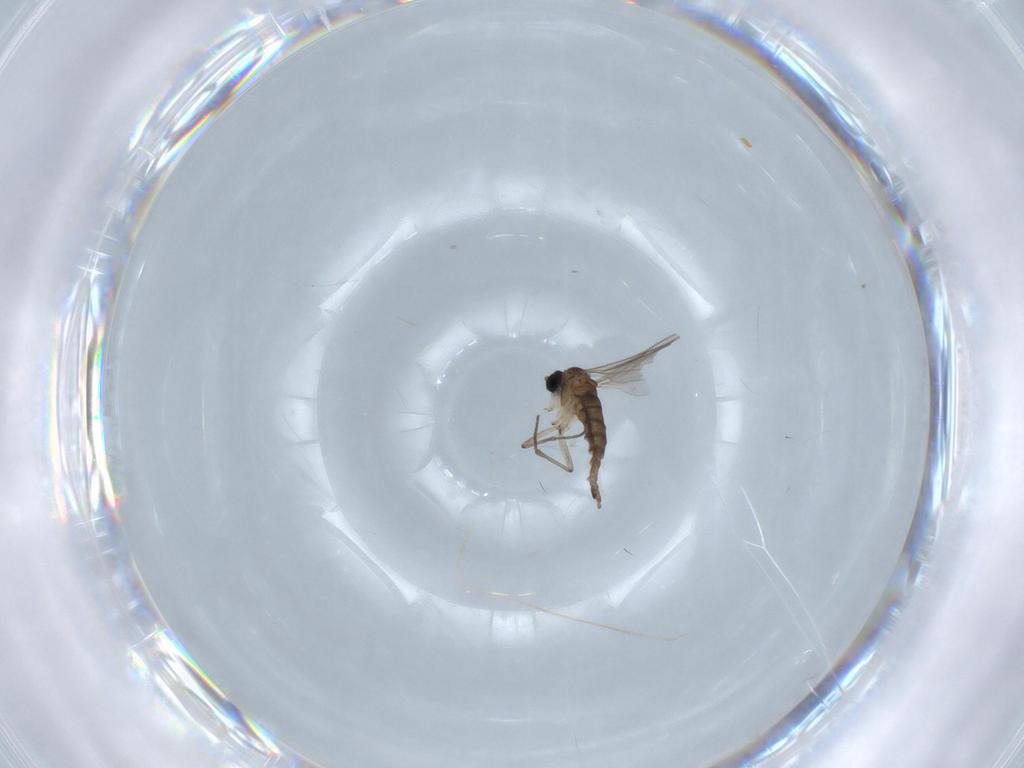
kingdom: Animalia
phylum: Arthropoda
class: Insecta
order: Diptera
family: Sciaridae
